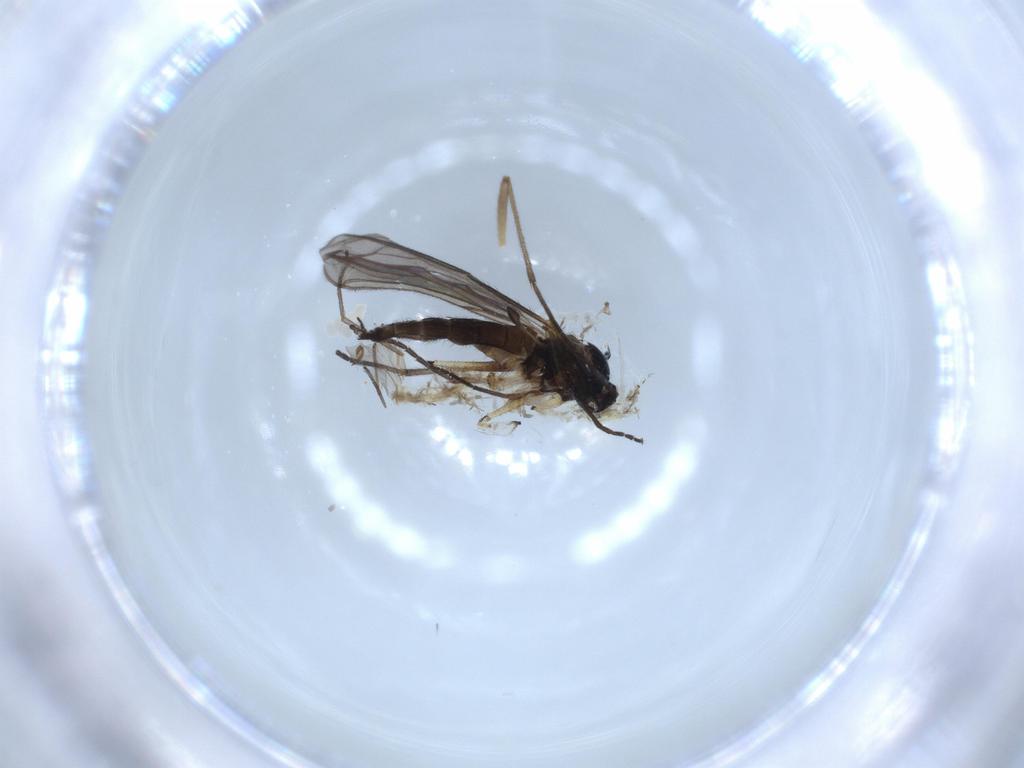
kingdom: Animalia
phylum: Arthropoda
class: Insecta
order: Diptera
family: Sciaridae
